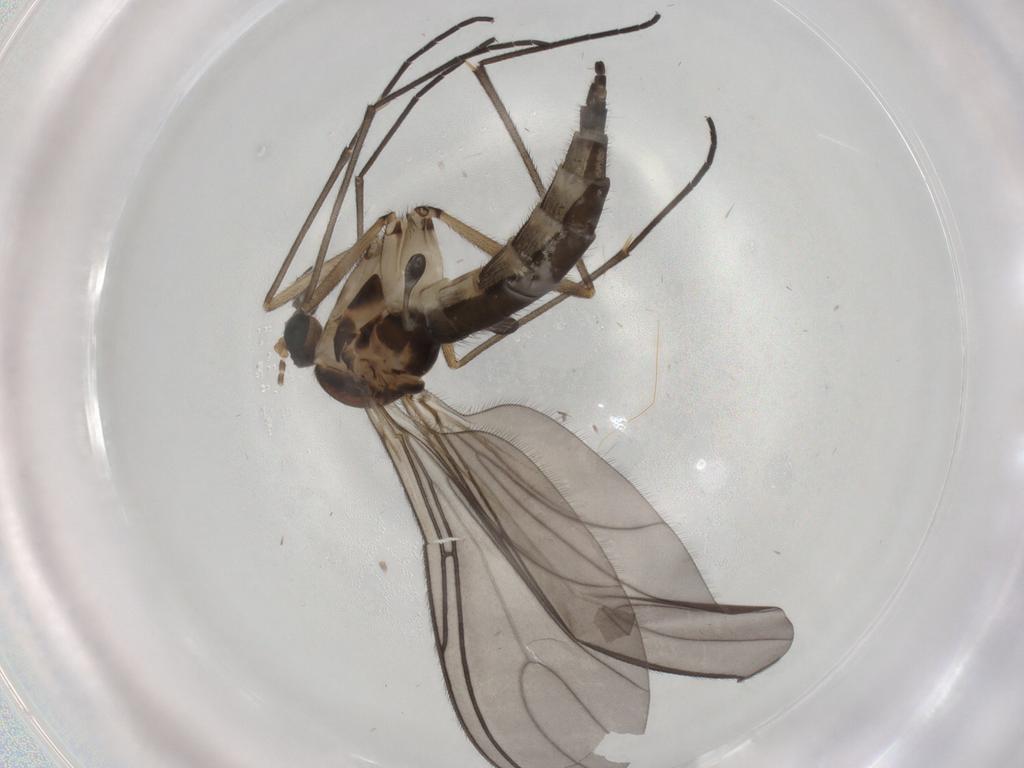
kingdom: Animalia
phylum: Arthropoda
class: Insecta
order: Diptera
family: Sciaridae
